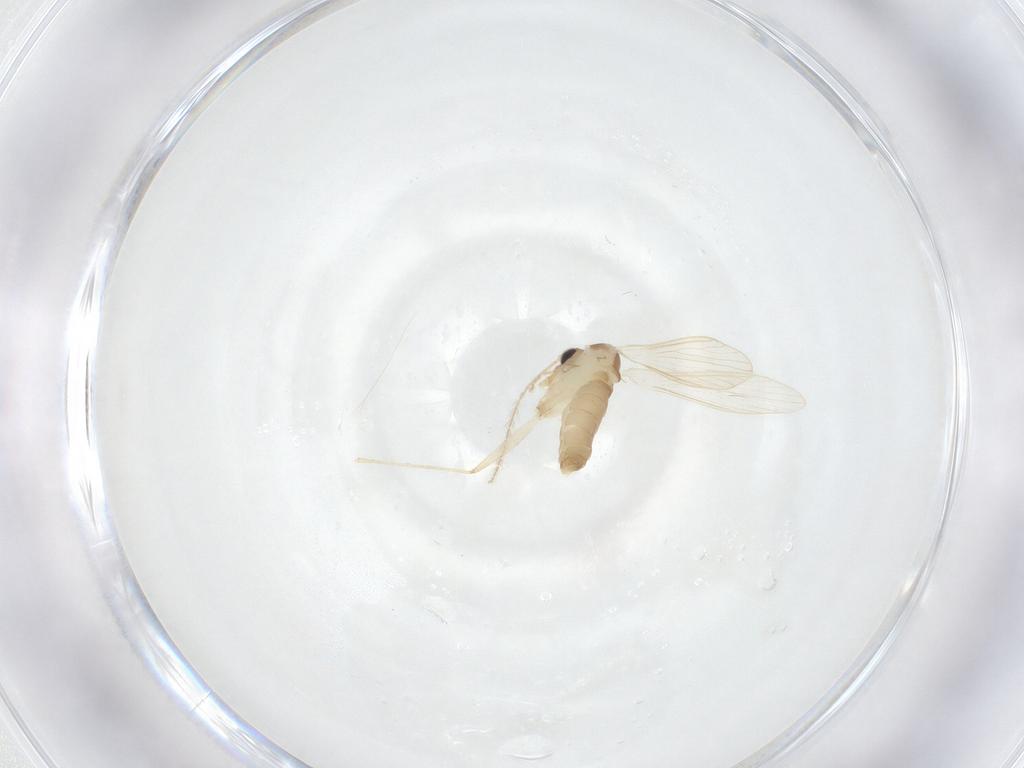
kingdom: Animalia
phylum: Arthropoda
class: Insecta
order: Diptera
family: Psychodidae
